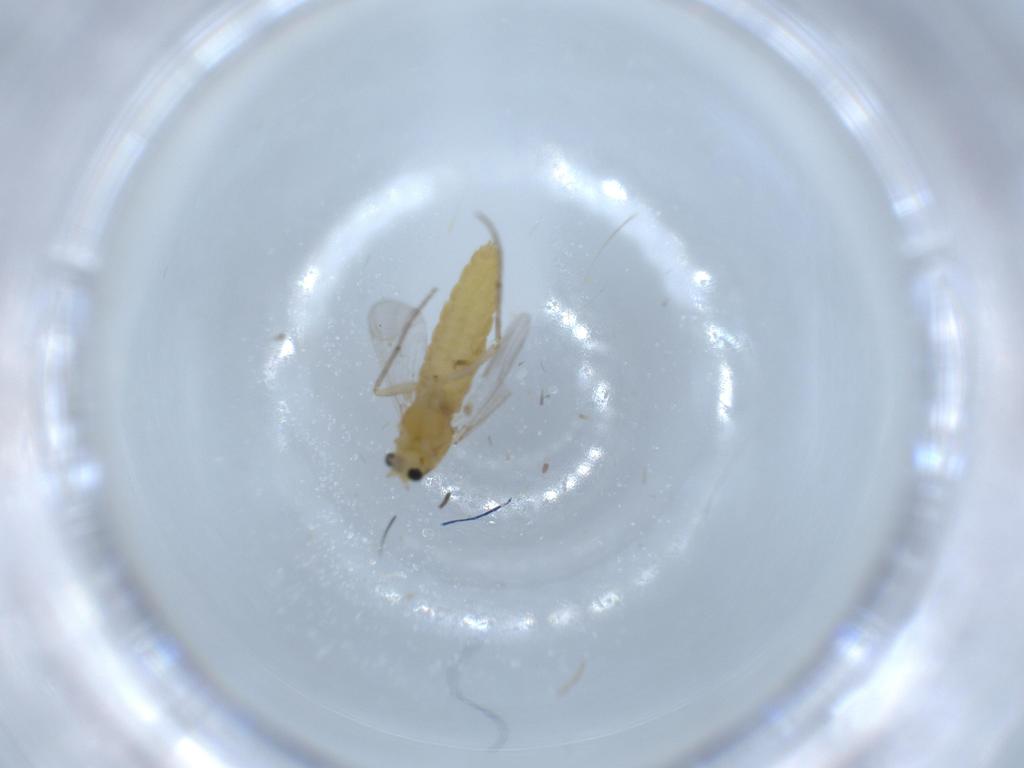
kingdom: Animalia
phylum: Arthropoda
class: Insecta
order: Diptera
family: Chironomidae
